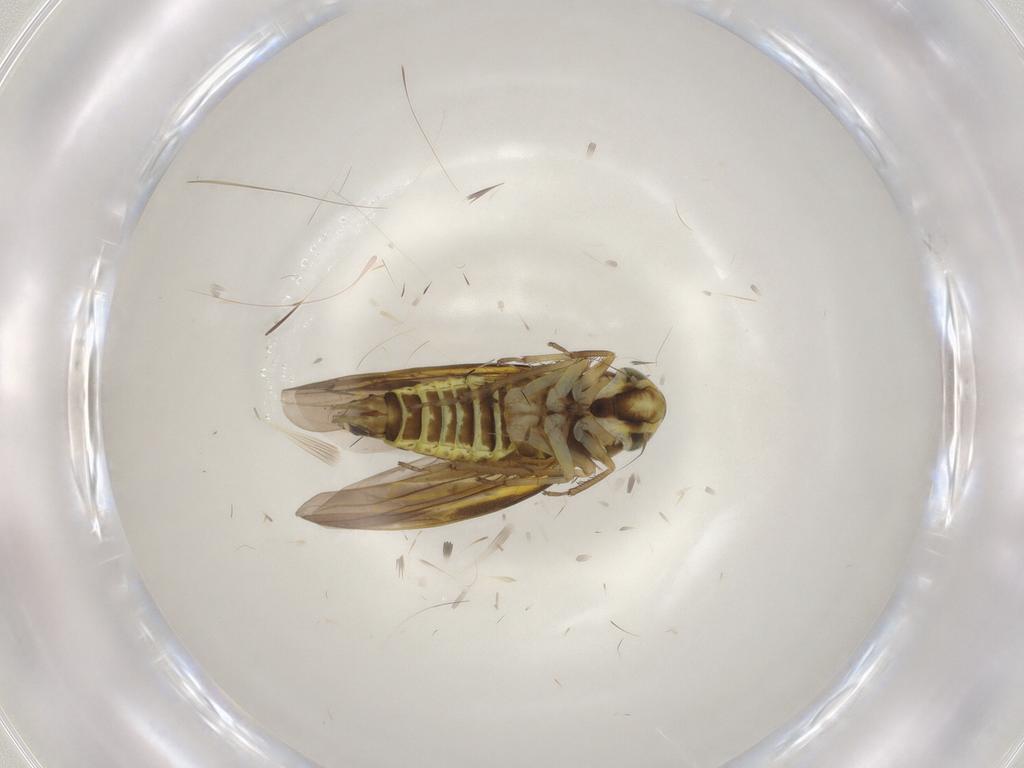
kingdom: Animalia
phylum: Arthropoda
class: Insecta
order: Hemiptera
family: Cicadellidae
